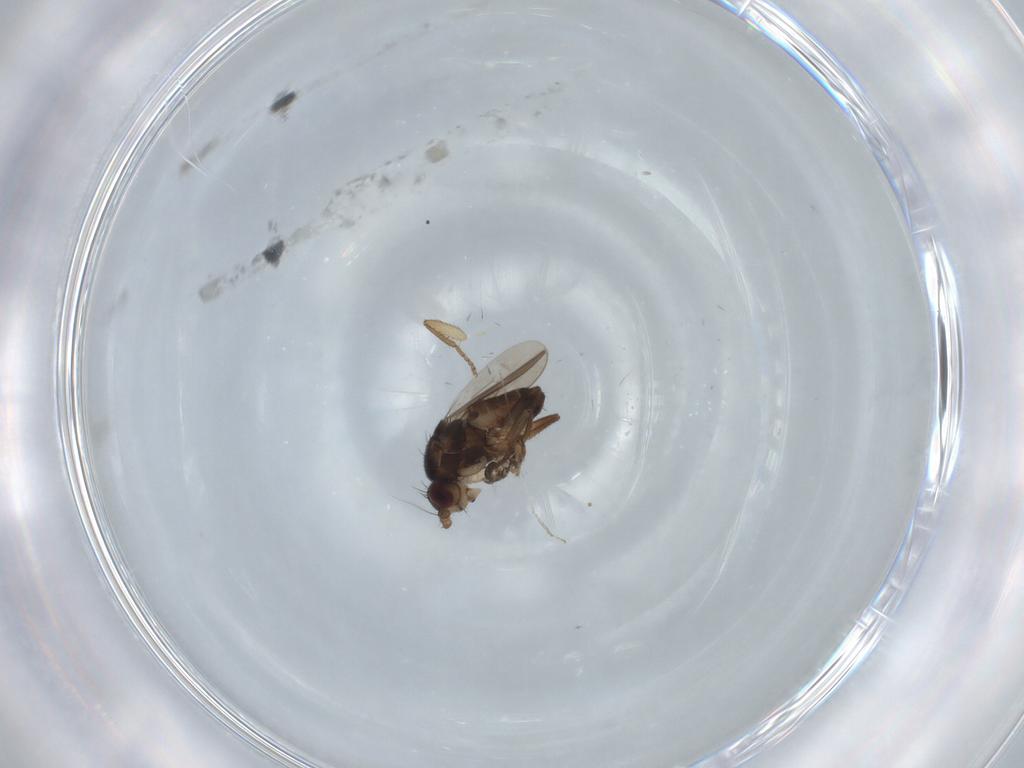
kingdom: Animalia
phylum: Arthropoda
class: Insecta
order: Diptera
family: Sphaeroceridae
